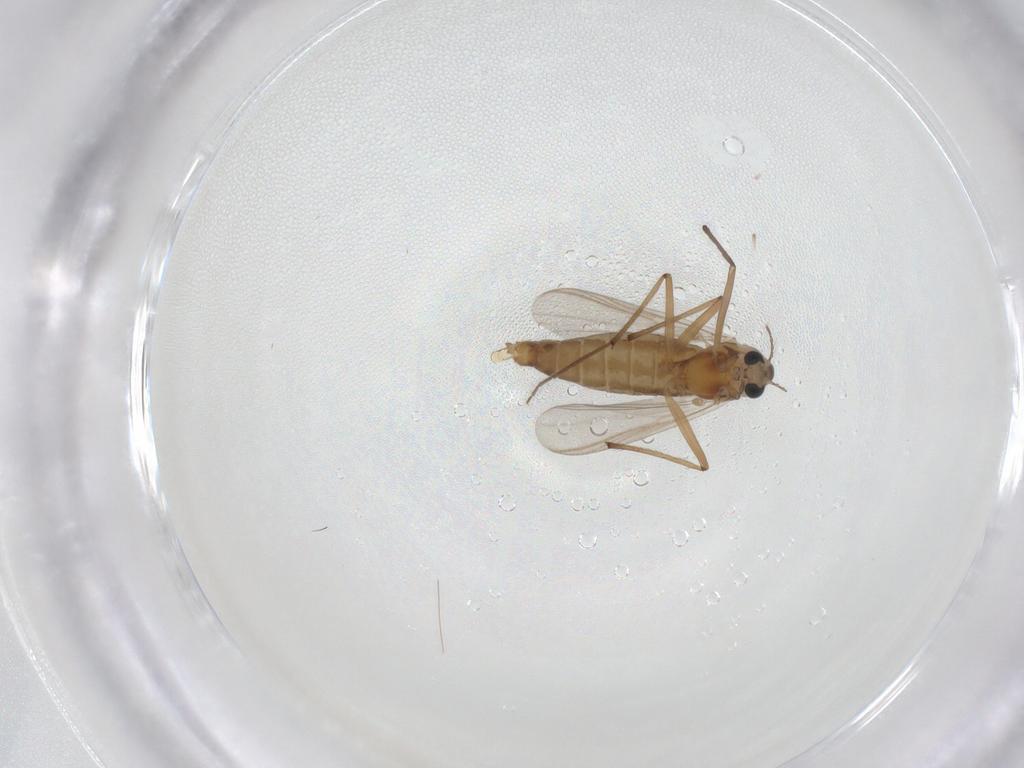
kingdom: Animalia
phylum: Arthropoda
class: Insecta
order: Diptera
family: Chironomidae
